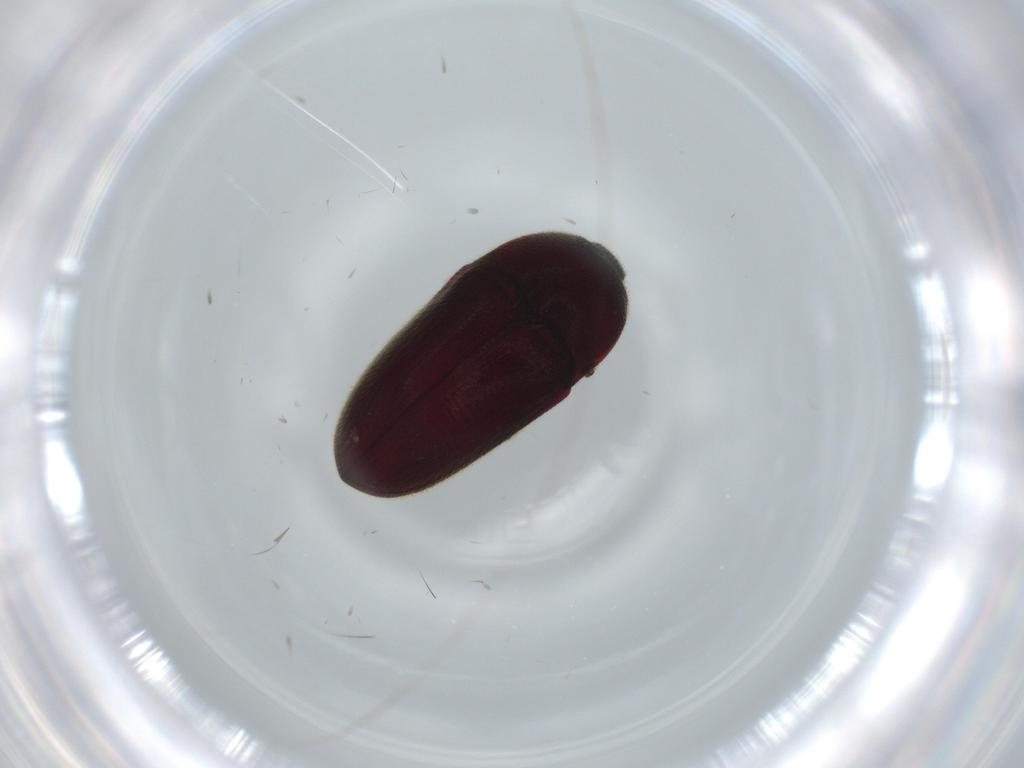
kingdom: Animalia
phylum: Arthropoda
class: Insecta
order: Coleoptera
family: Throscidae
